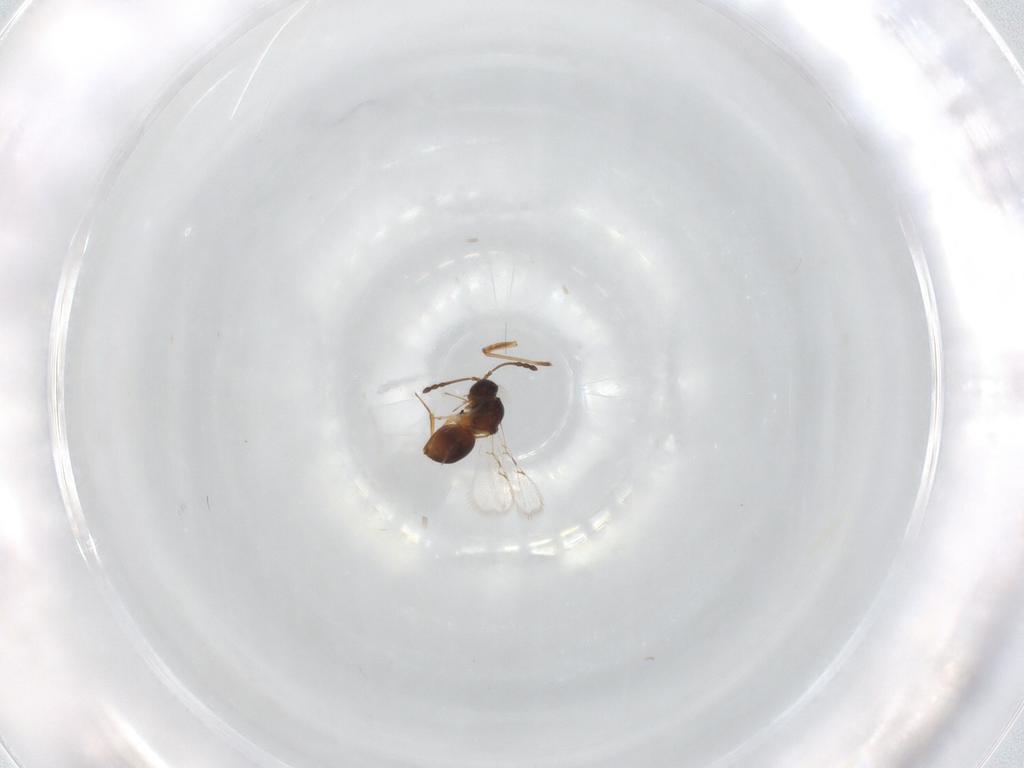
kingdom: Animalia
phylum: Arthropoda
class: Insecta
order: Hymenoptera
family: Figitidae
